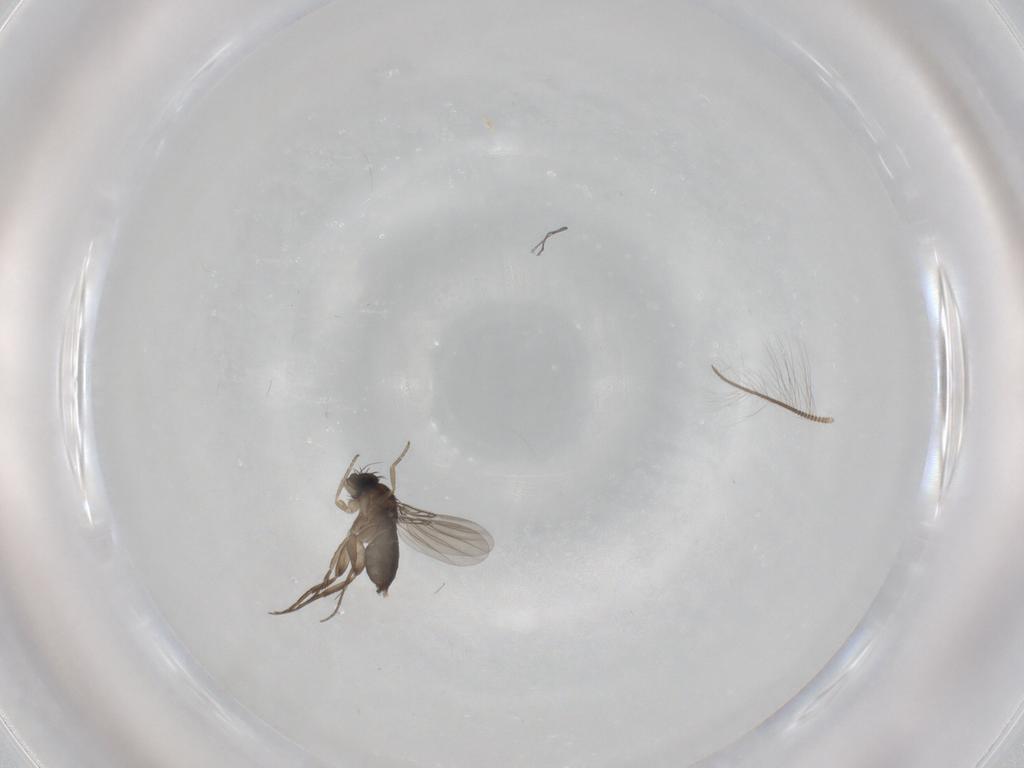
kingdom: Animalia
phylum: Arthropoda
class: Insecta
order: Diptera
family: Phoridae
